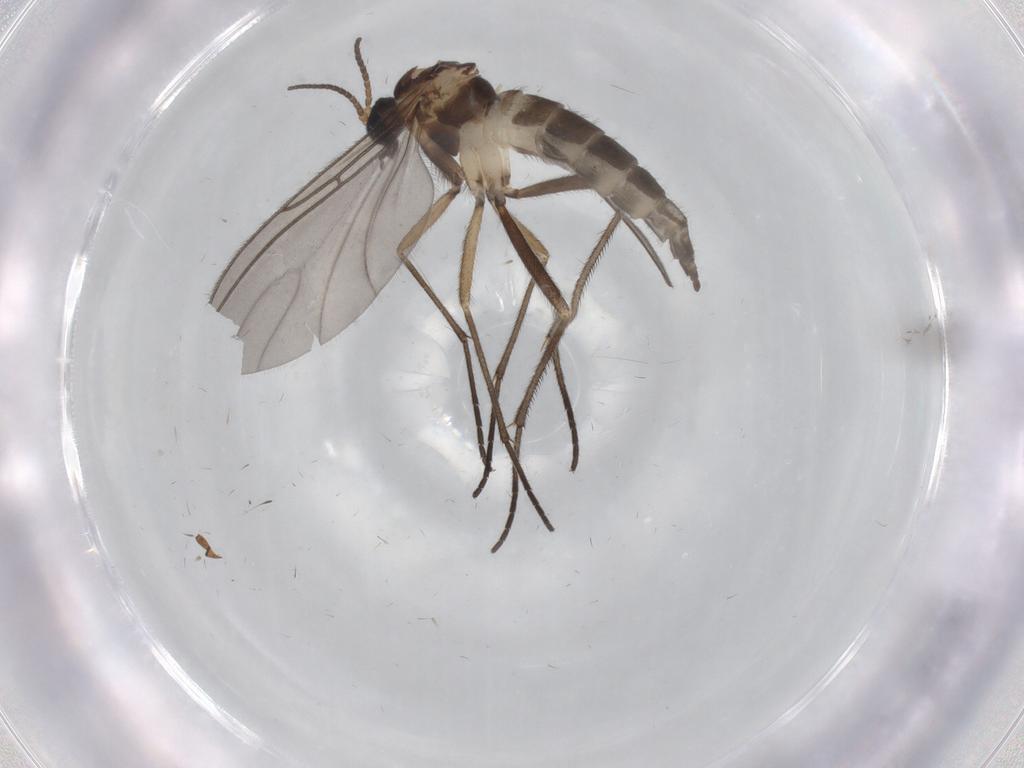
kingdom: Animalia
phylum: Arthropoda
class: Insecta
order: Diptera
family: Sciaridae
